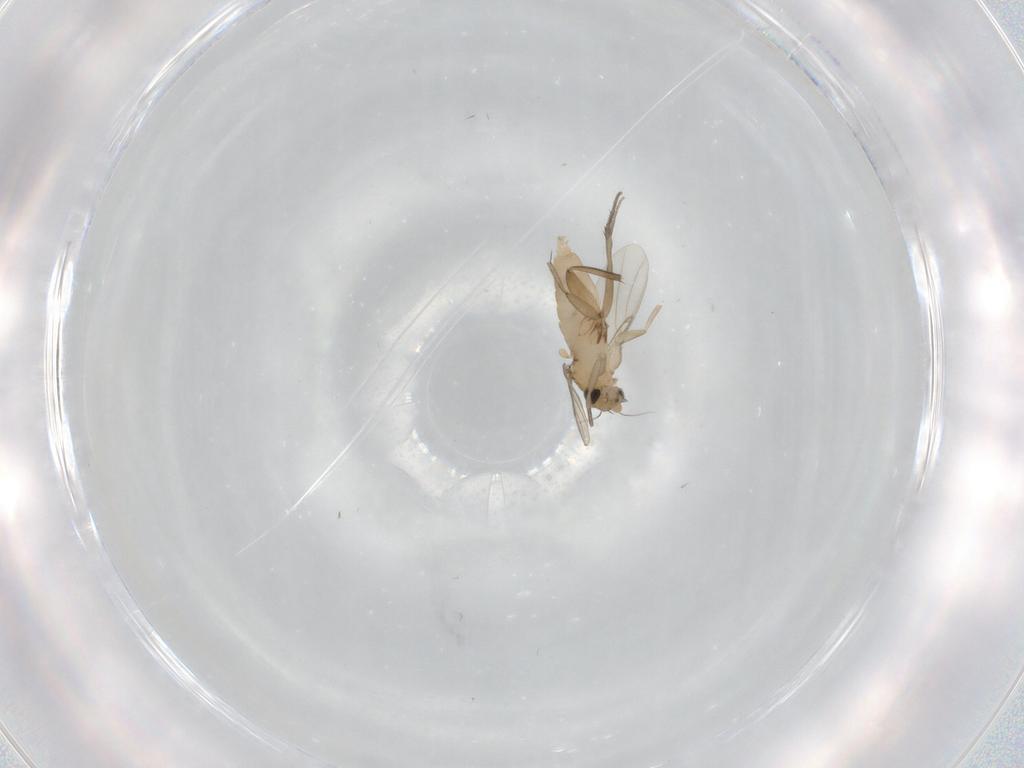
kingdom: Animalia
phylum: Arthropoda
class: Insecta
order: Diptera
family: Phoridae
